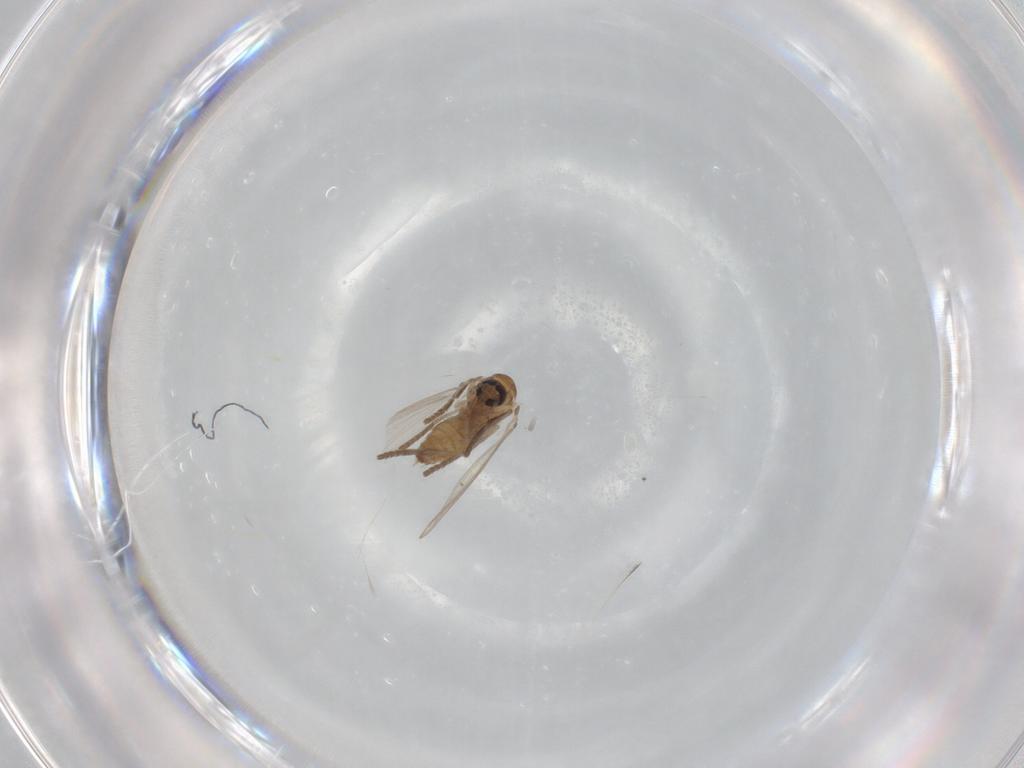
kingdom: Animalia
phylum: Arthropoda
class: Insecta
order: Diptera
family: Psychodidae
